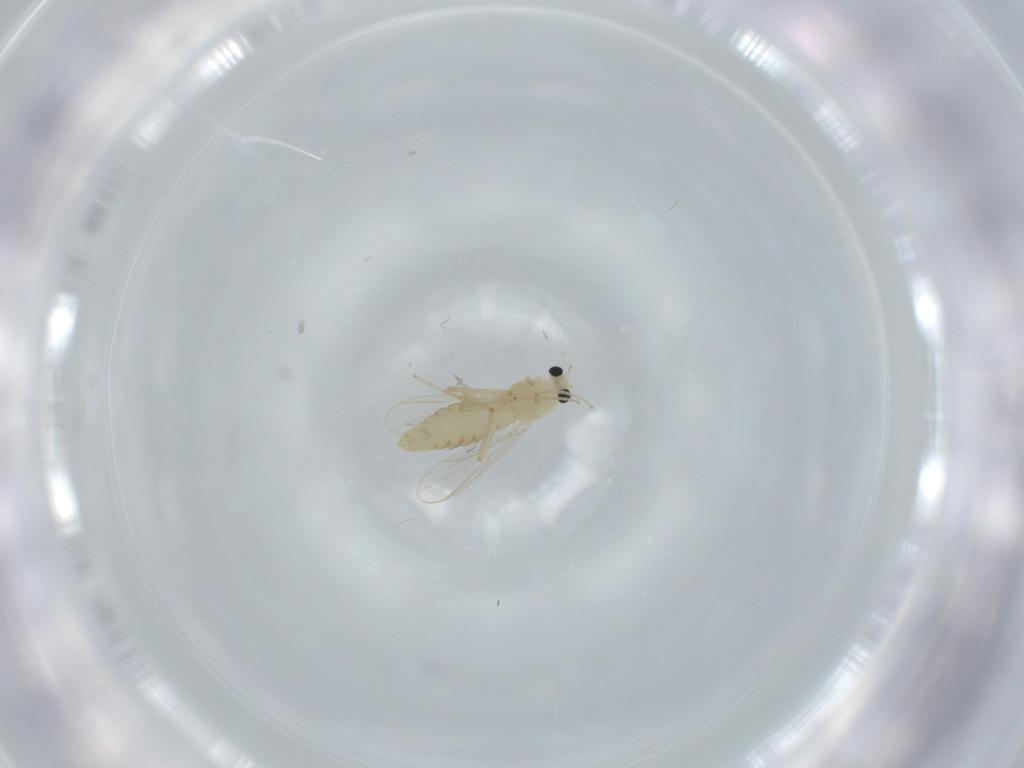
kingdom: Animalia
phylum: Arthropoda
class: Insecta
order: Diptera
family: Chironomidae
